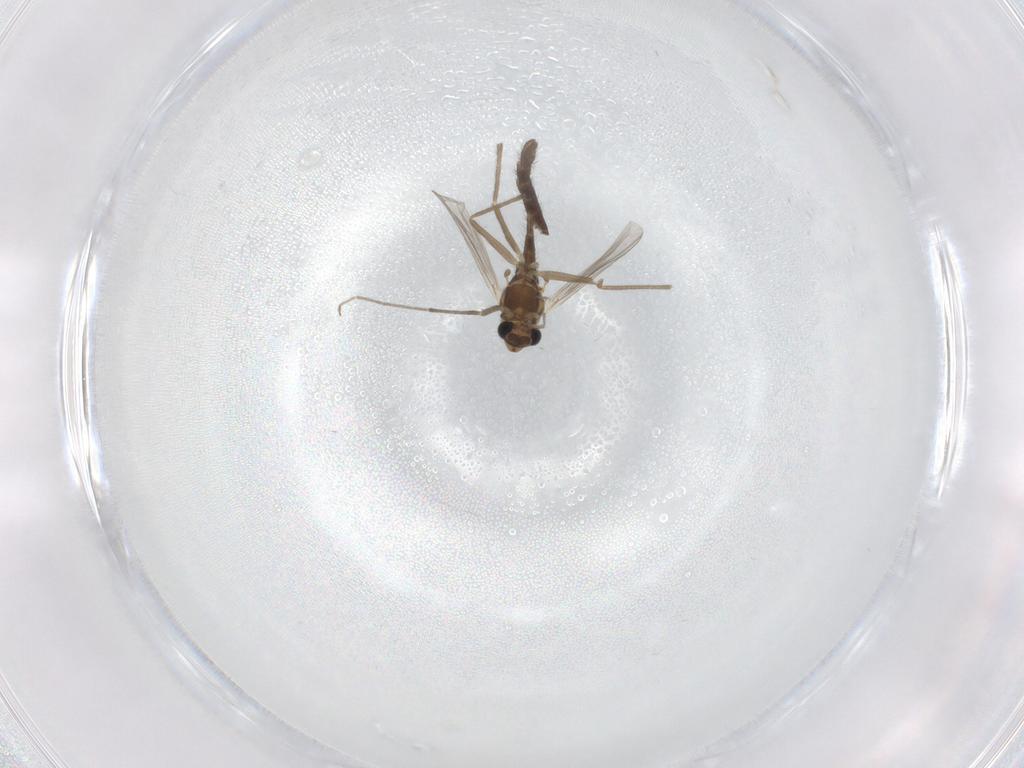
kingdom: Animalia
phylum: Arthropoda
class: Insecta
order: Diptera
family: Chironomidae
